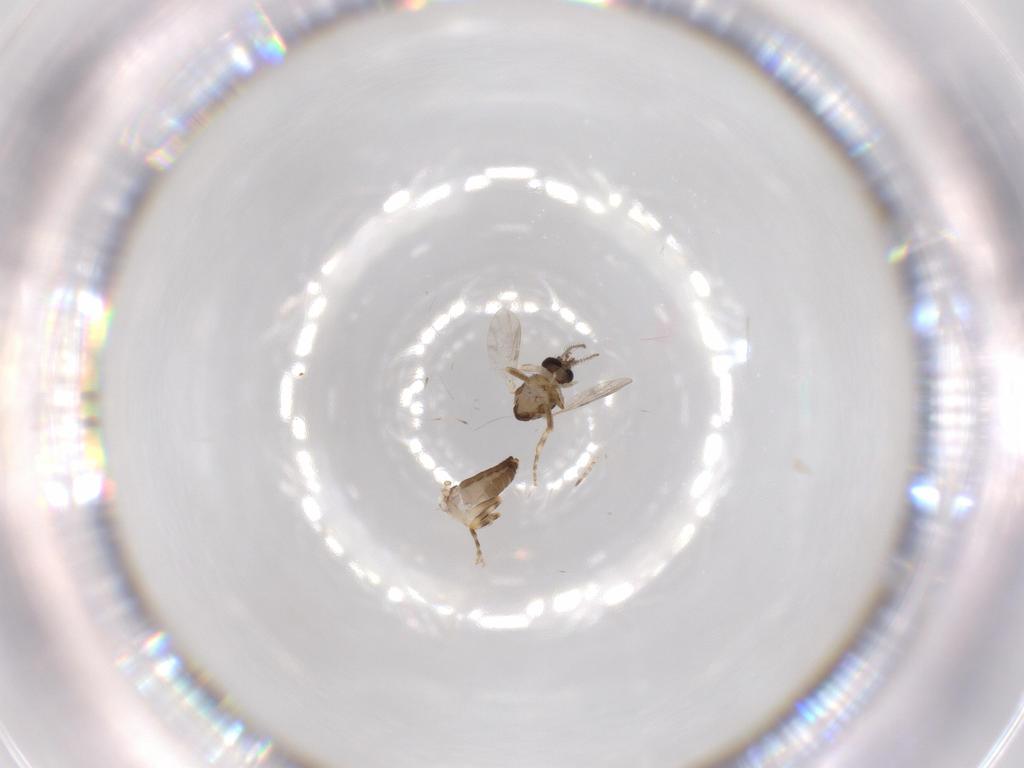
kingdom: Animalia
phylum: Arthropoda
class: Insecta
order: Diptera
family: Ceratopogonidae
